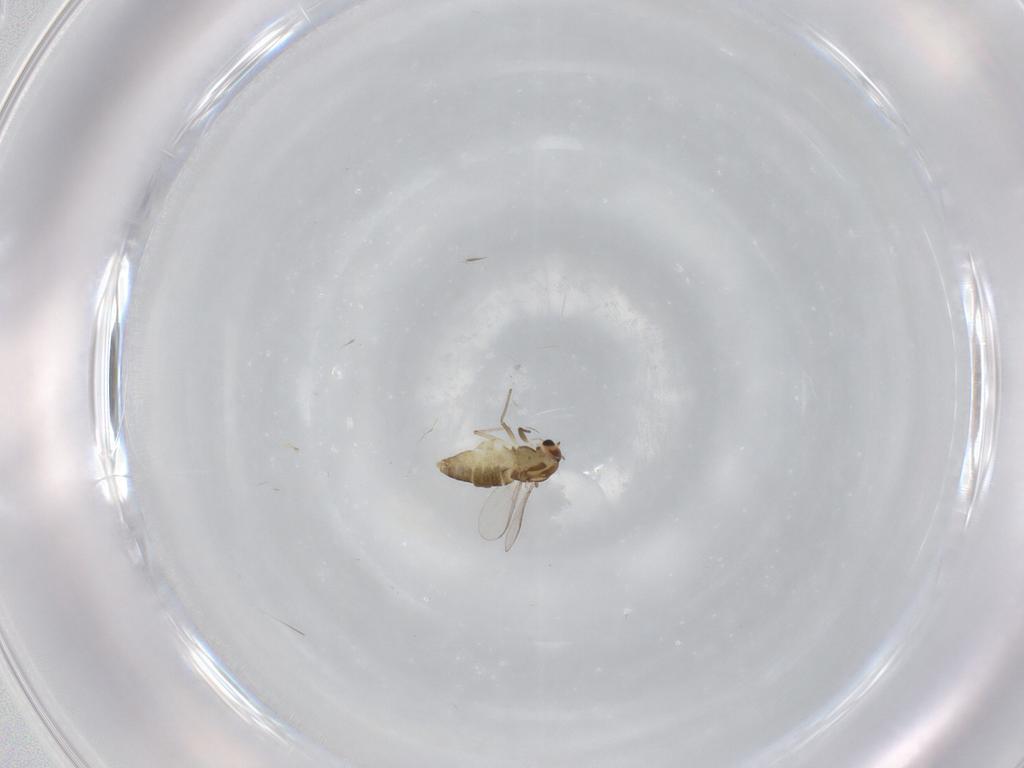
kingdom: Animalia
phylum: Arthropoda
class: Insecta
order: Diptera
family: Chironomidae
